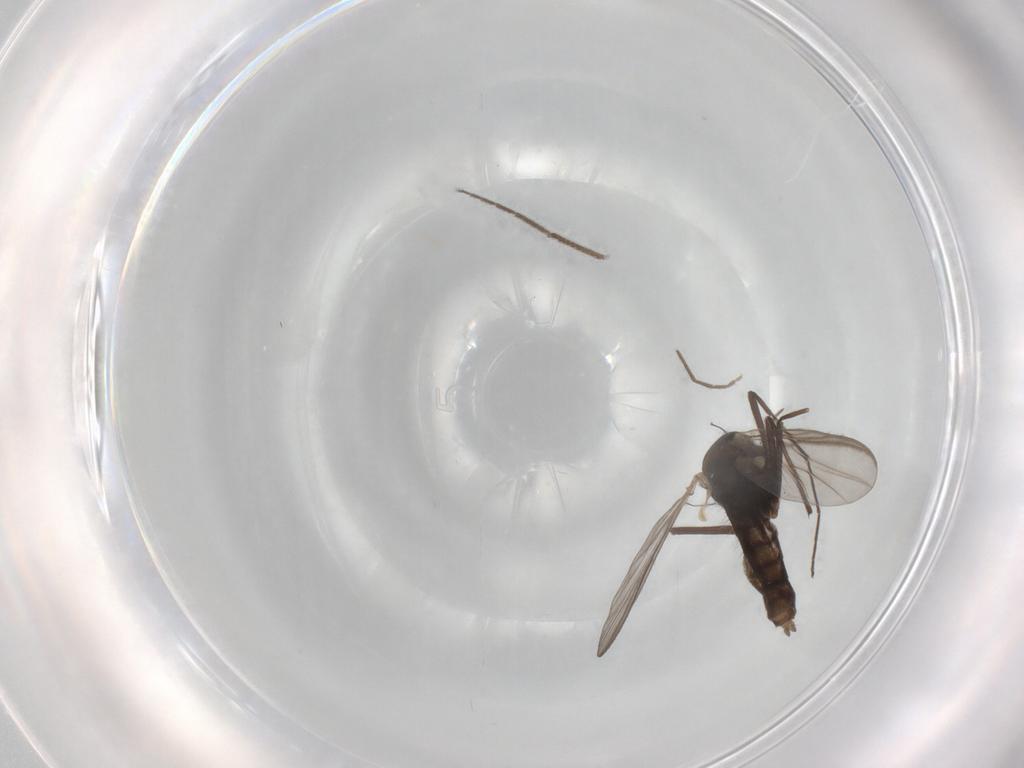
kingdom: Animalia
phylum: Arthropoda
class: Insecta
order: Diptera
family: Chironomidae
